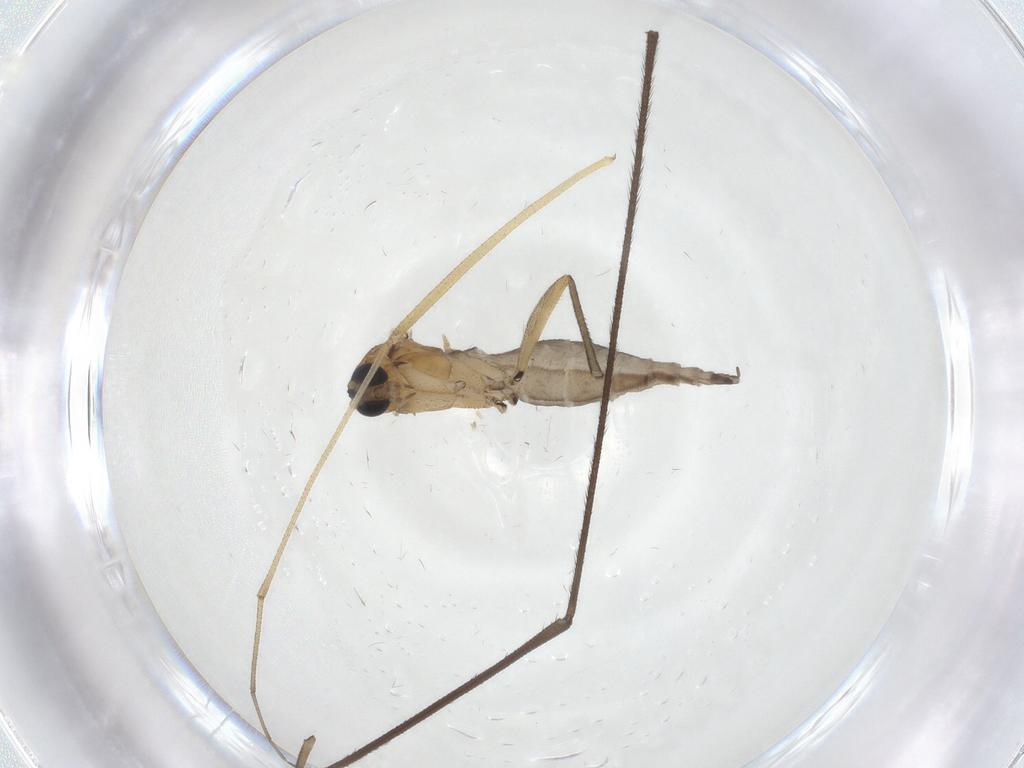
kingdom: Animalia
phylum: Arthropoda
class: Insecta
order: Diptera
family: Sciaridae
